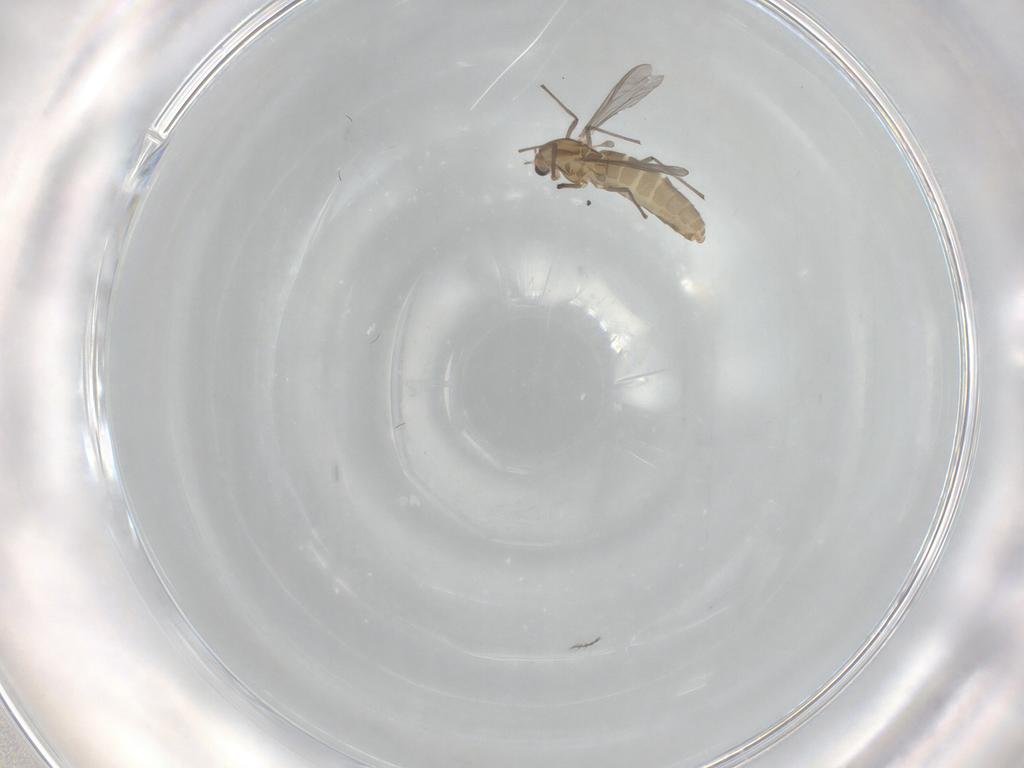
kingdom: Animalia
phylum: Arthropoda
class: Insecta
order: Diptera
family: Chironomidae
